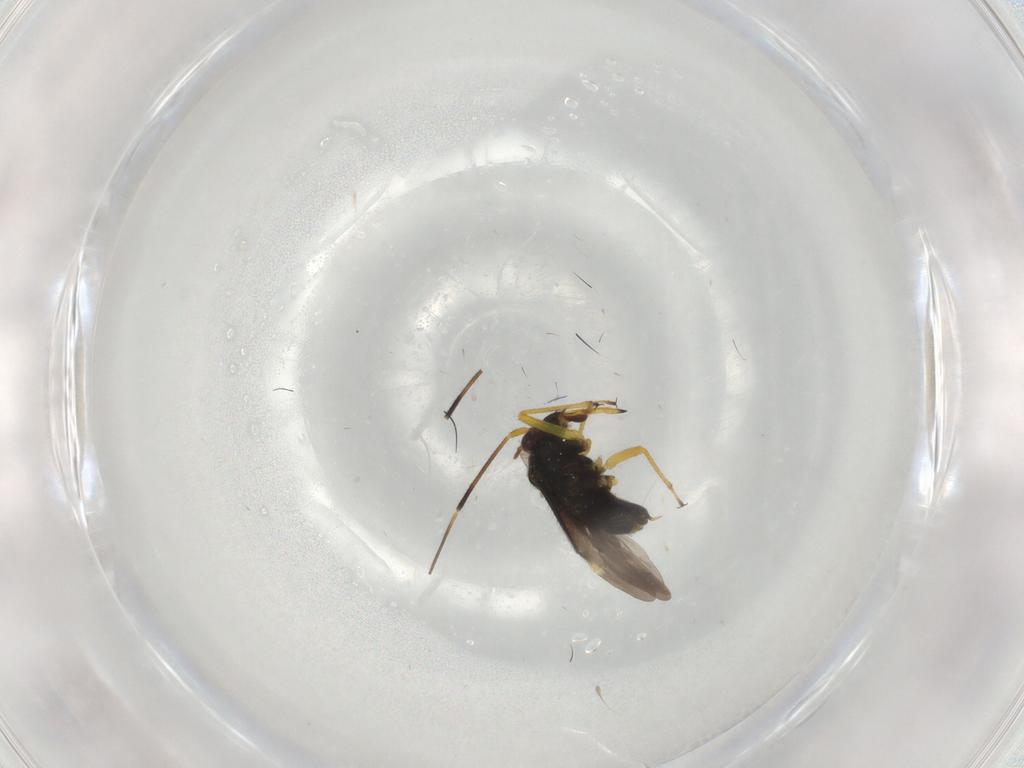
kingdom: Animalia
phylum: Arthropoda
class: Insecta
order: Hemiptera
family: Miridae
